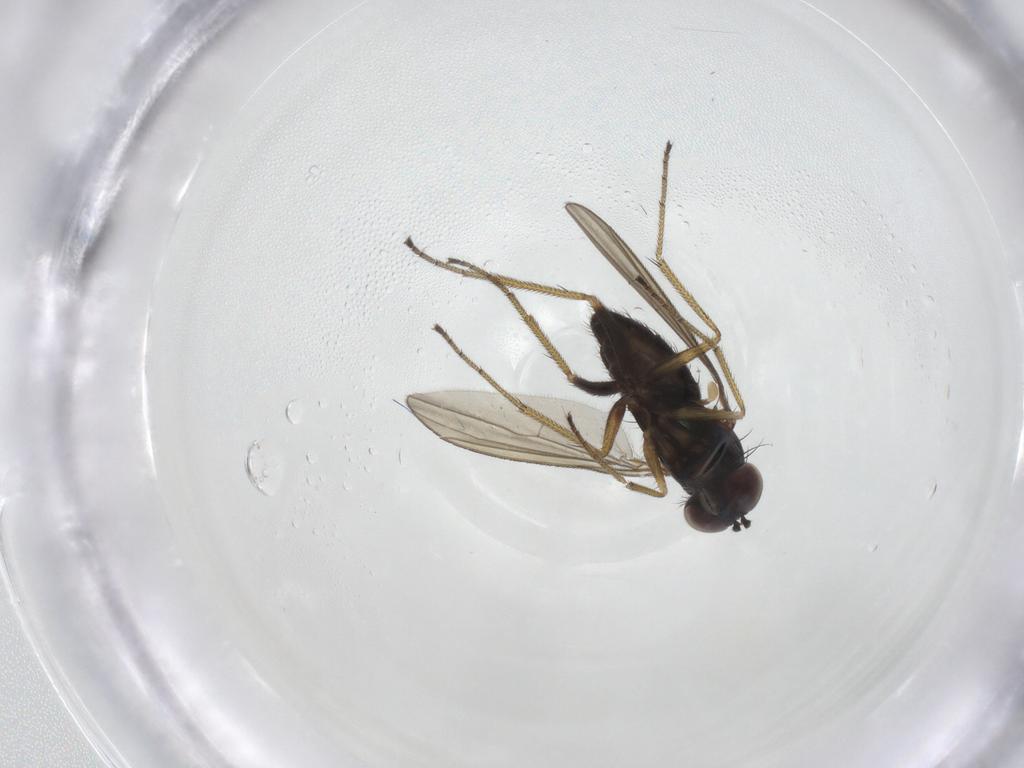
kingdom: Animalia
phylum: Arthropoda
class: Insecta
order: Diptera
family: Dolichopodidae
